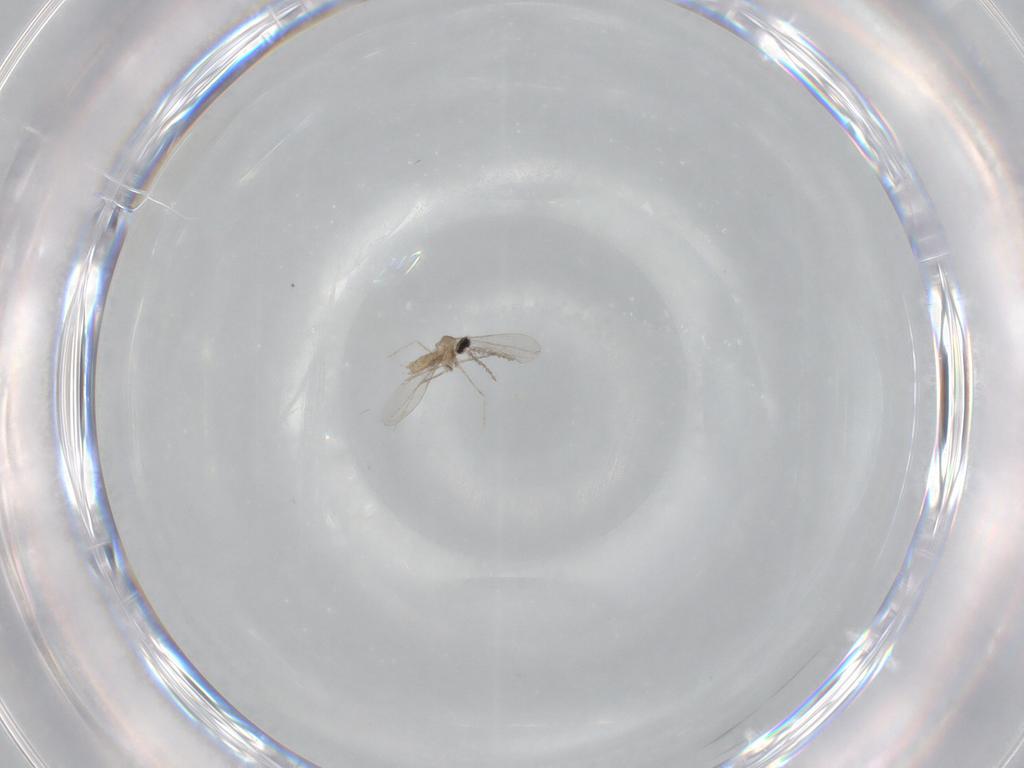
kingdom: Animalia
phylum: Arthropoda
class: Insecta
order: Diptera
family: Cecidomyiidae
